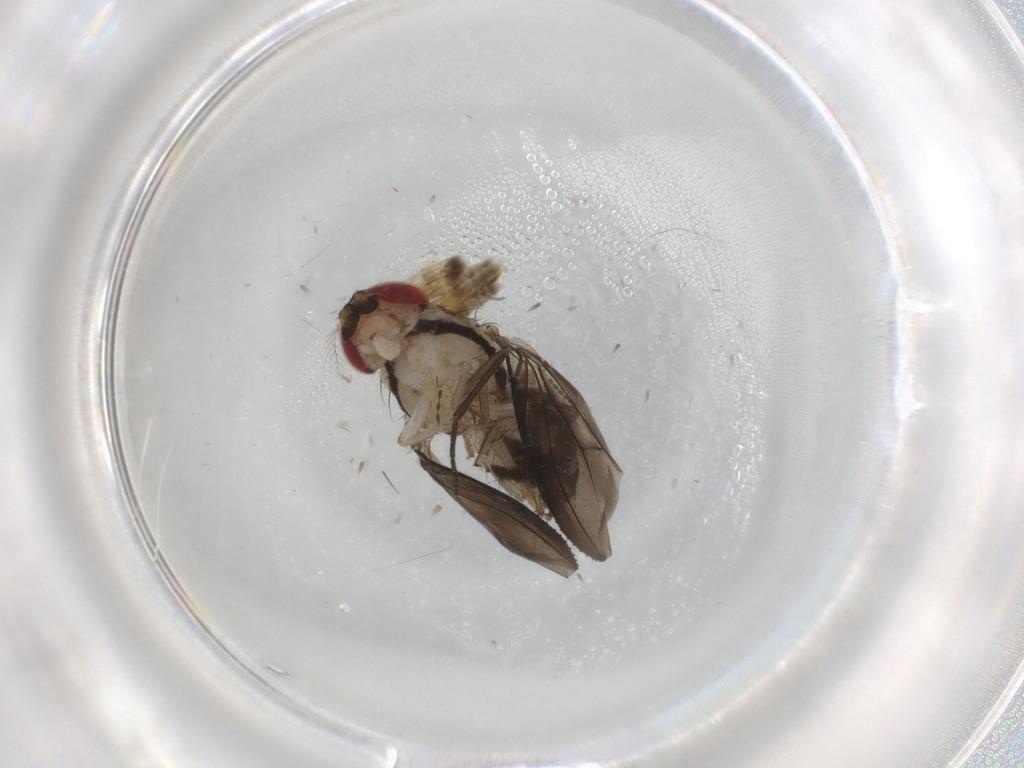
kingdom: Animalia
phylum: Arthropoda
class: Insecta
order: Diptera
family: Cecidomyiidae
